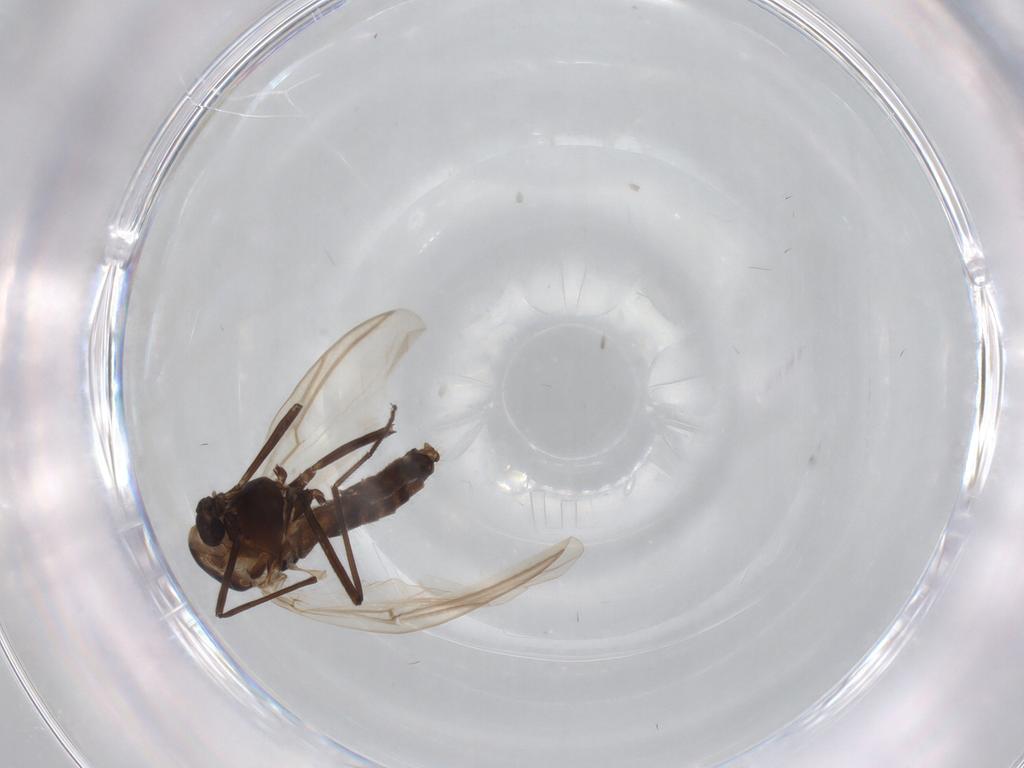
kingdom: Animalia
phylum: Arthropoda
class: Insecta
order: Diptera
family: Chironomidae
